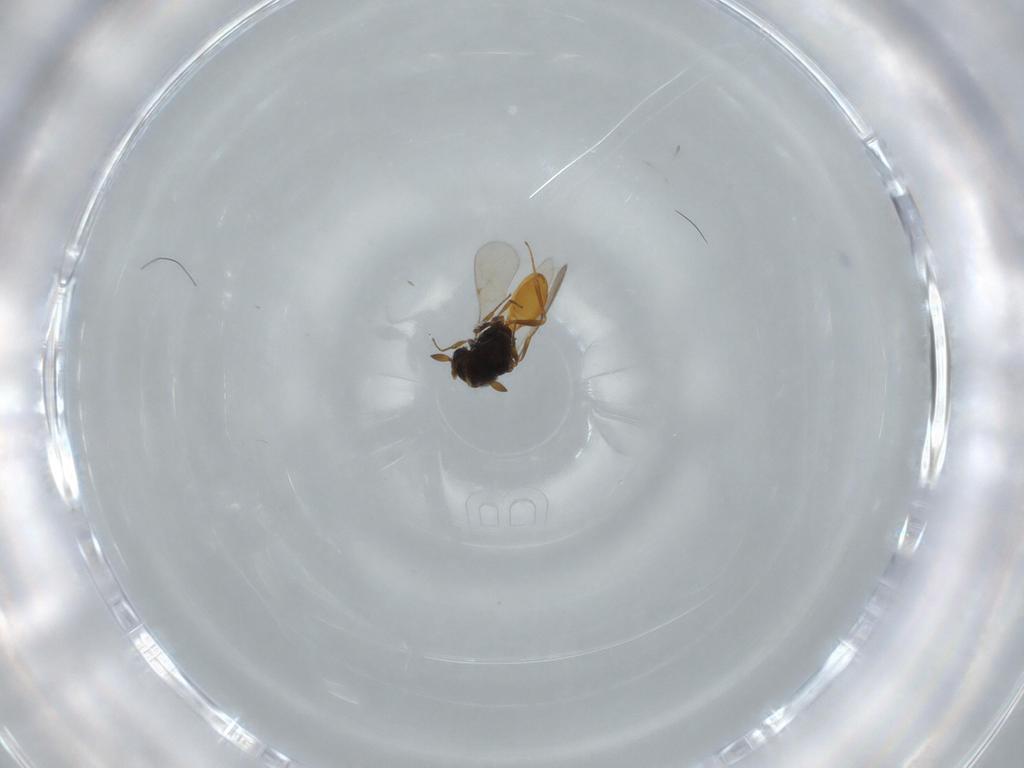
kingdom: Animalia
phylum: Arthropoda
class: Insecta
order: Hymenoptera
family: Scelionidae
